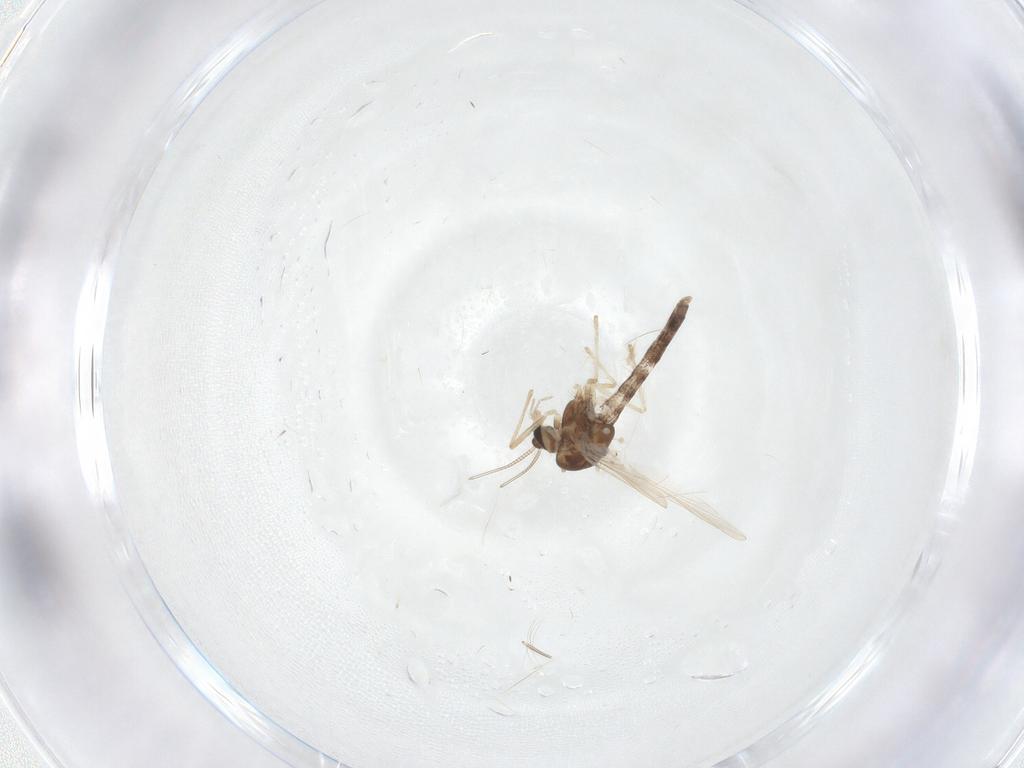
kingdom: Animalia
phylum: Arthropoda
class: Insecta
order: Diptera
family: Chironomidae
